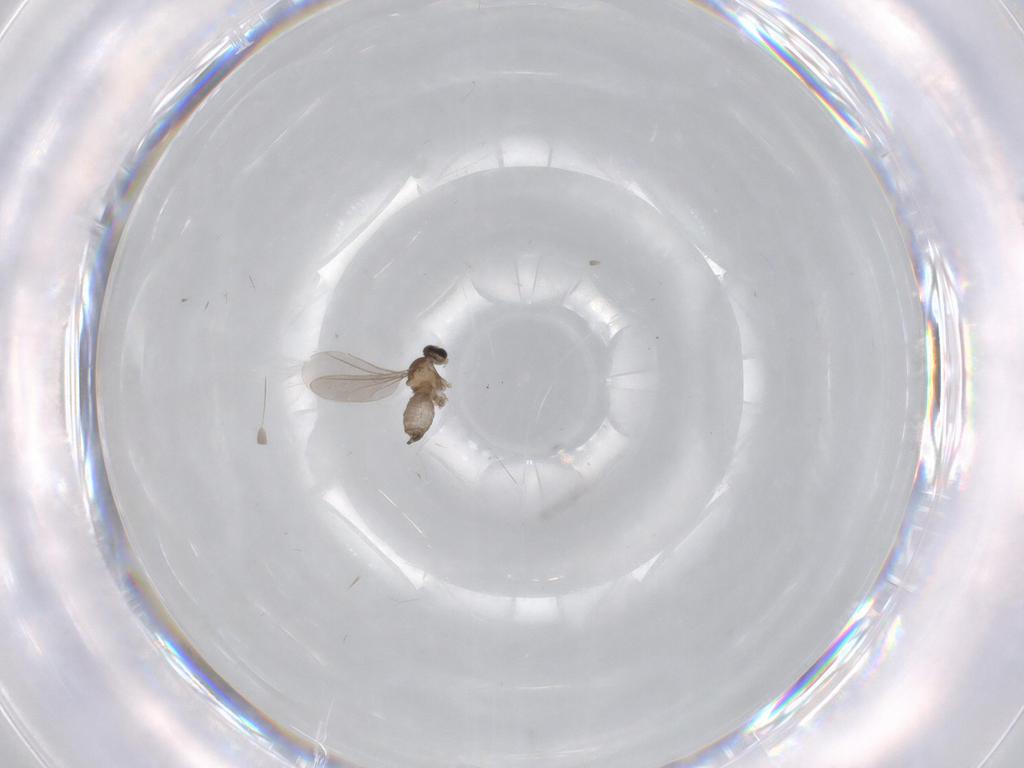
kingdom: Animalia
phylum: Arthropoda
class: Insecta
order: Diptera
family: Cecidomyiidae
